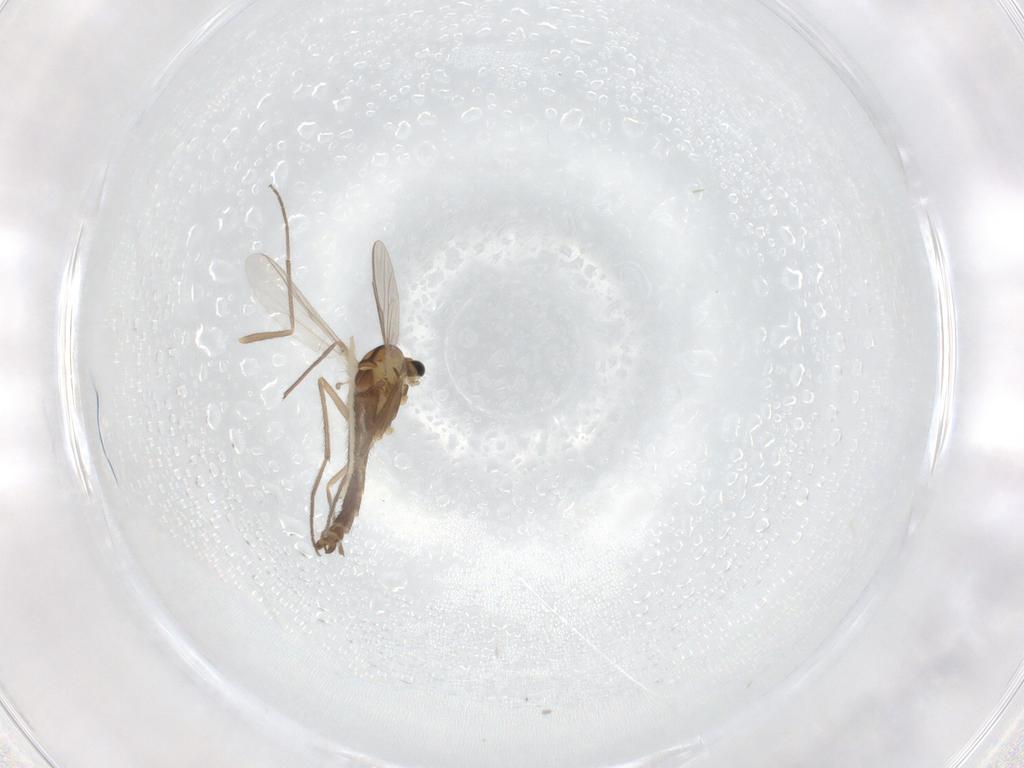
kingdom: Animalia
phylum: Arthropoda
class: Insecta
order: Diptera
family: Chironomidae
